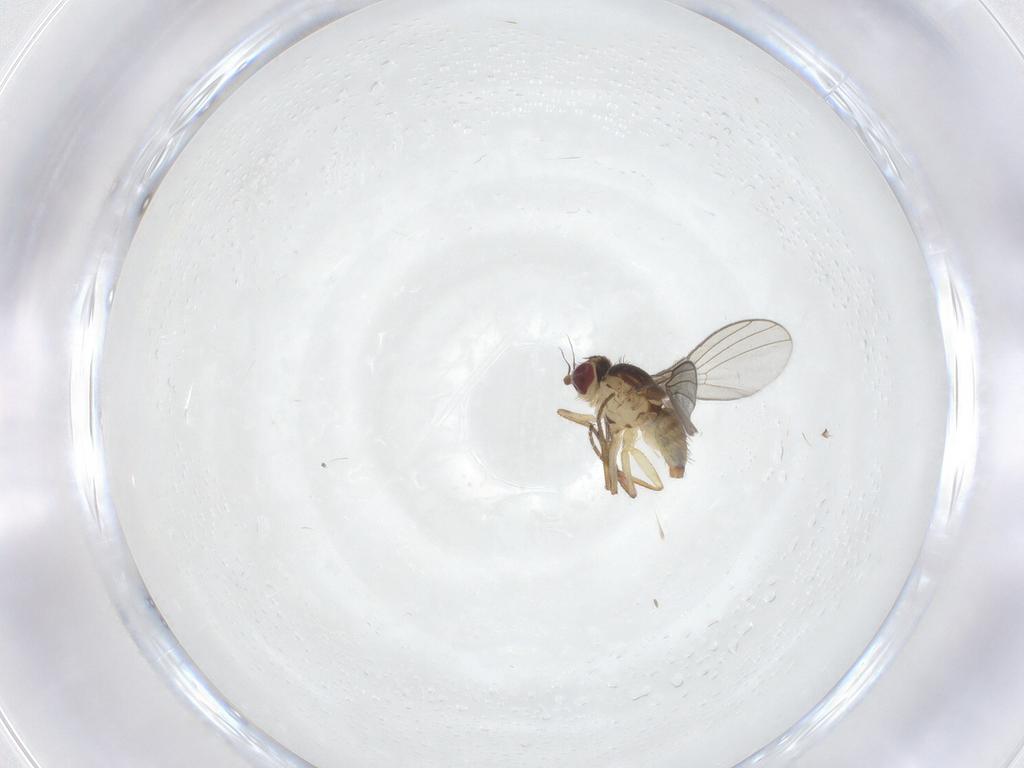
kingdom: Animalia
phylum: Arthropoda
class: Insecta
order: Diptera
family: Agromyzidae
